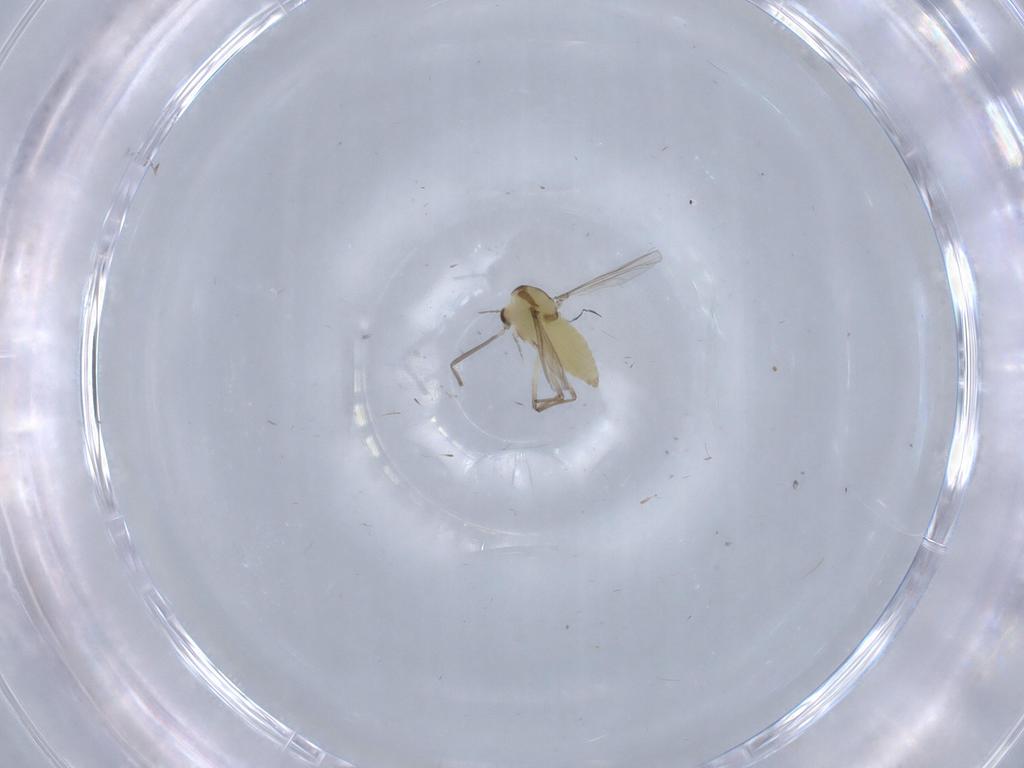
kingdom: Animalia
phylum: Arthropoda
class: Insecta
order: Diptera
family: Chironomidae
